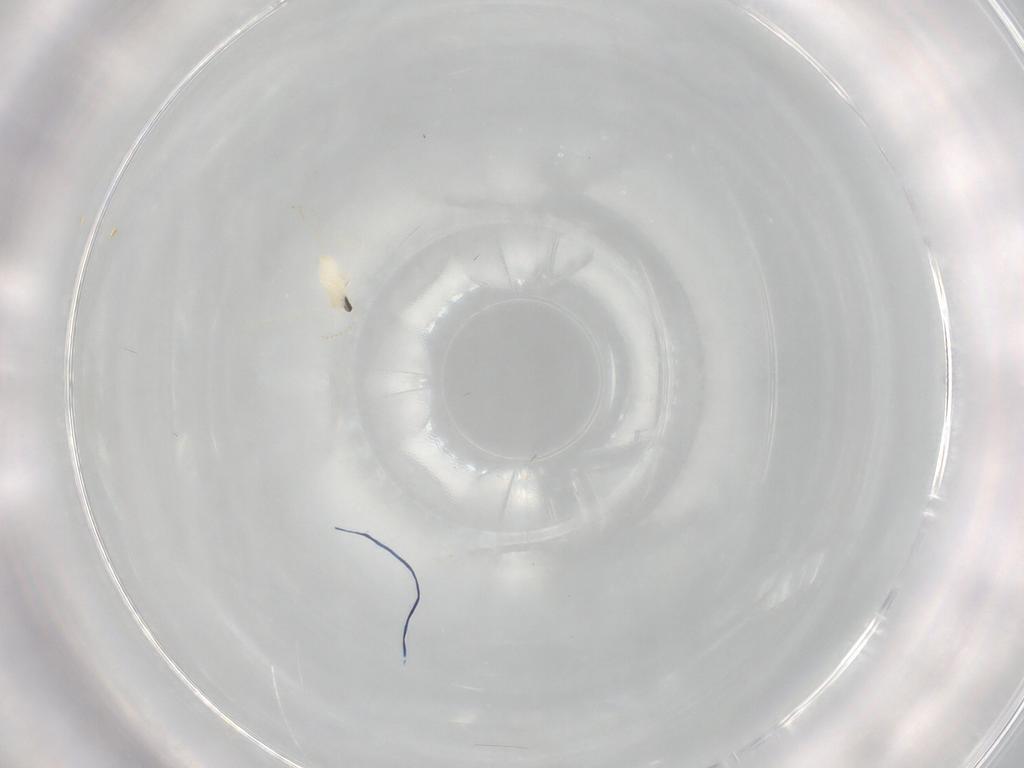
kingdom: Animalia
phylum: Arthropoda
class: Insecta
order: Diptera
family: Cecidomyiidae
